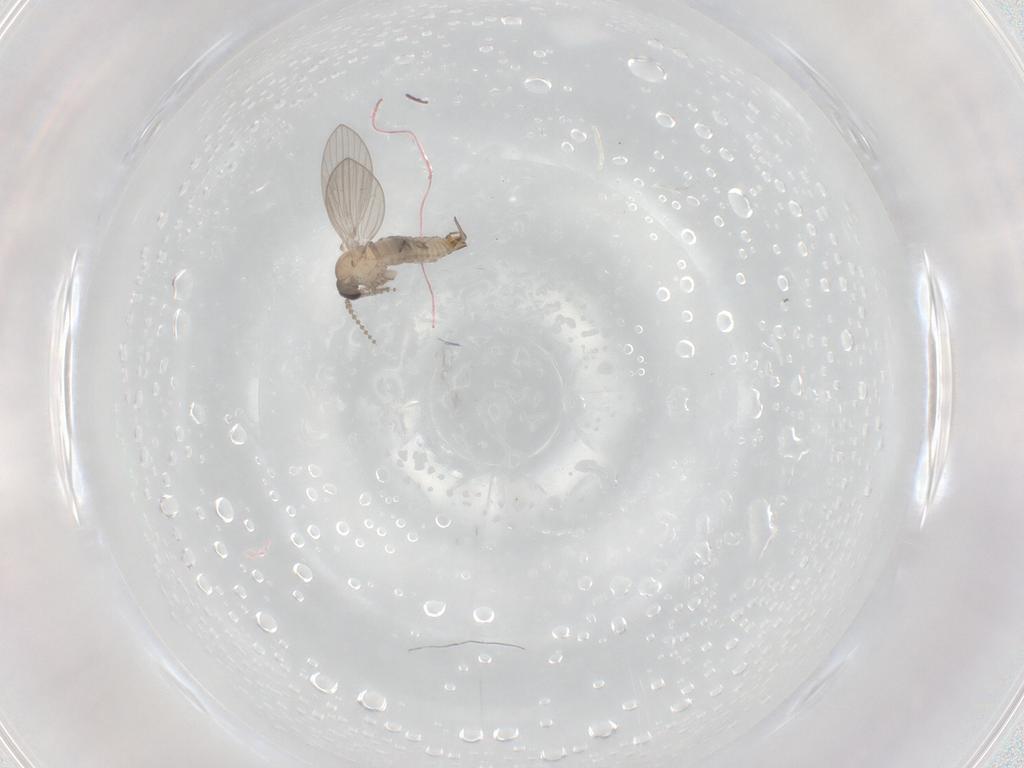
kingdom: Animalia
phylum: Arthropoda
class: Insecta
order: Diptera
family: Psychodidae
